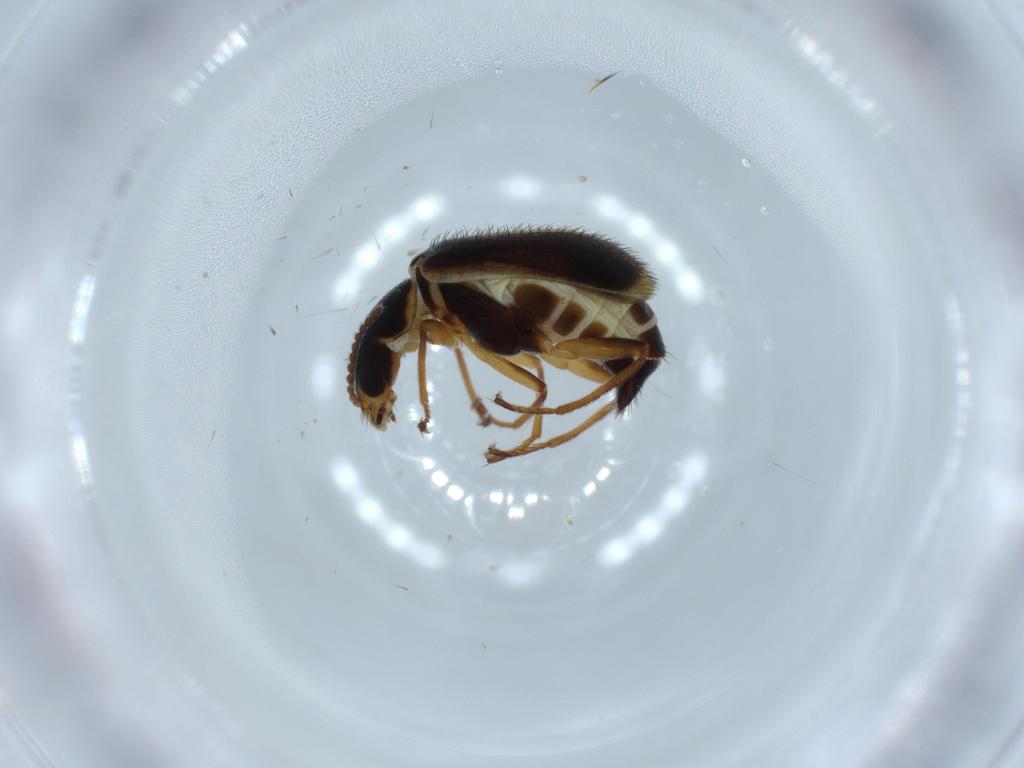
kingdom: Animalia
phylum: Arthropoda
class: Insecta
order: Coleoptera
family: Melyridae
